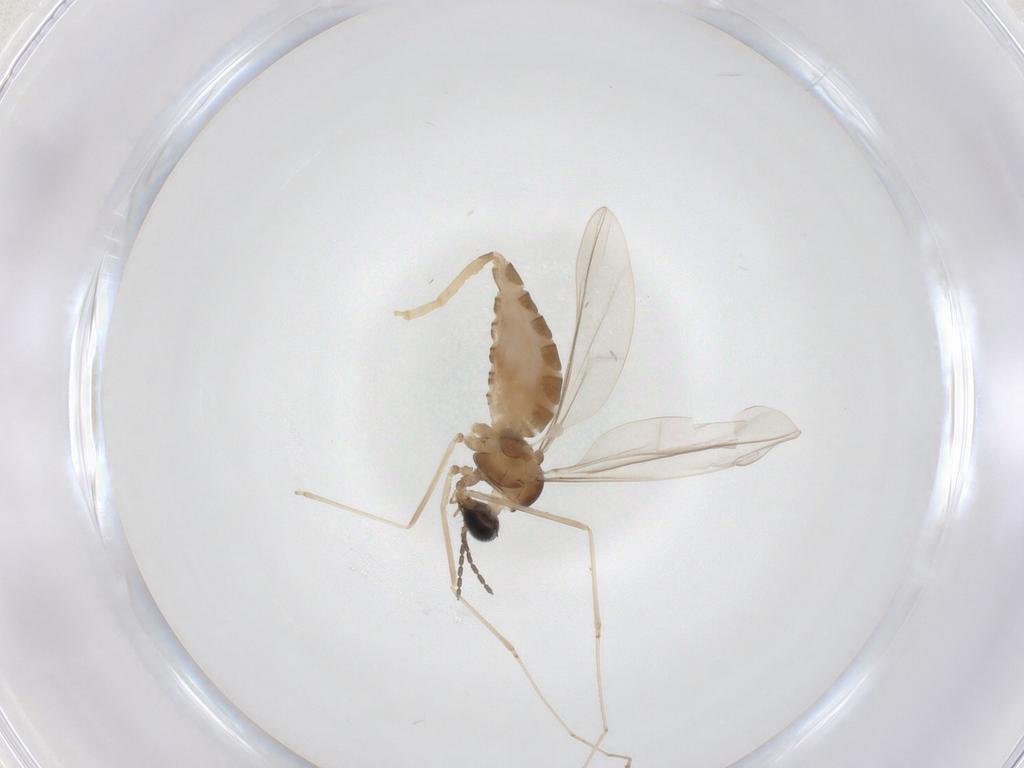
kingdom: Animalia
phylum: Arthropoda
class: Insecta
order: Diptera
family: Cecidomyiidae
